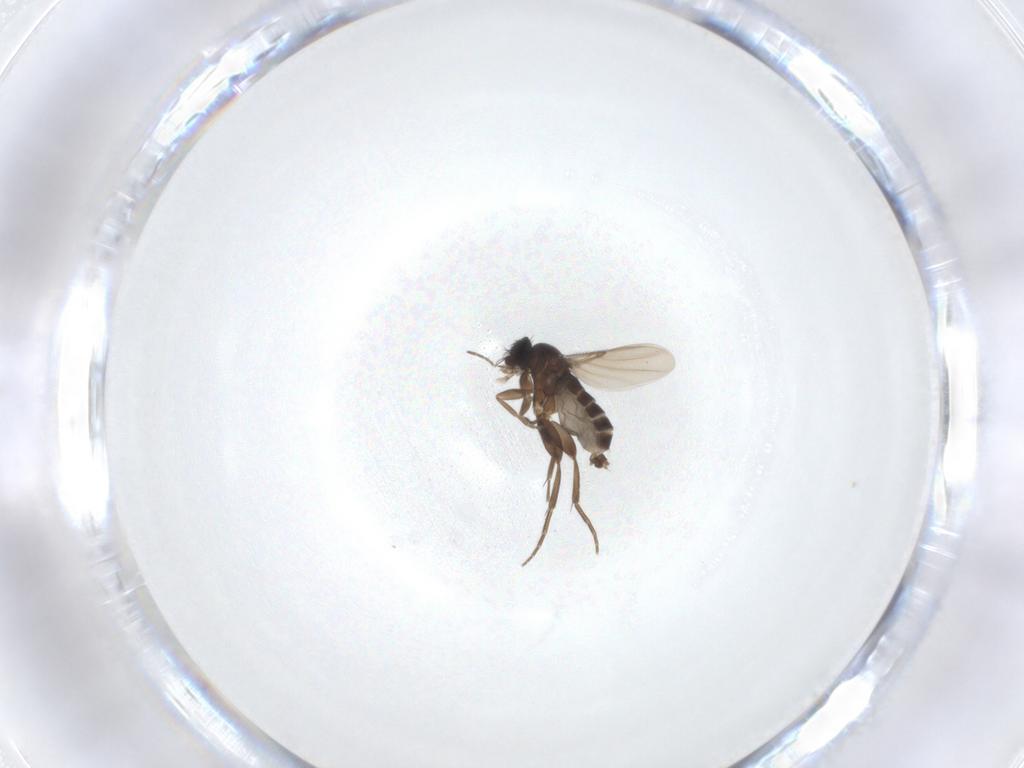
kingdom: Animalia
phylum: Arthropoda
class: Insecta
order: Diptera
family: Phoridae
